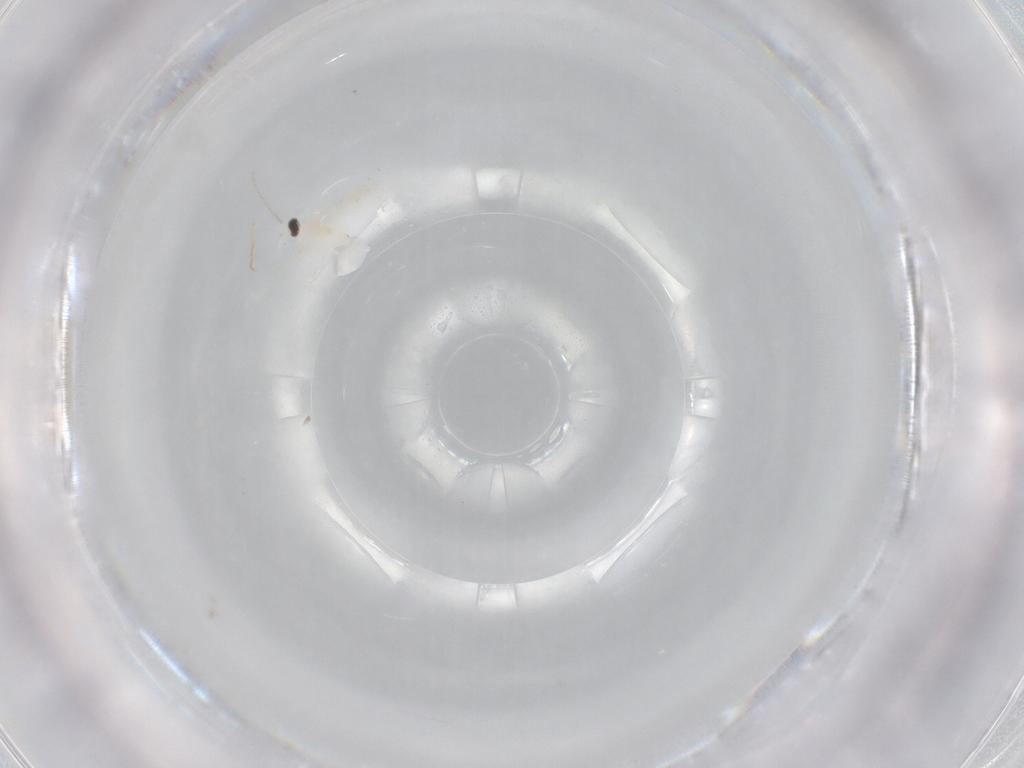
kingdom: Animalia
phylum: Arthropoda
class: Insecta
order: Diptera
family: Cecidomyiidae
